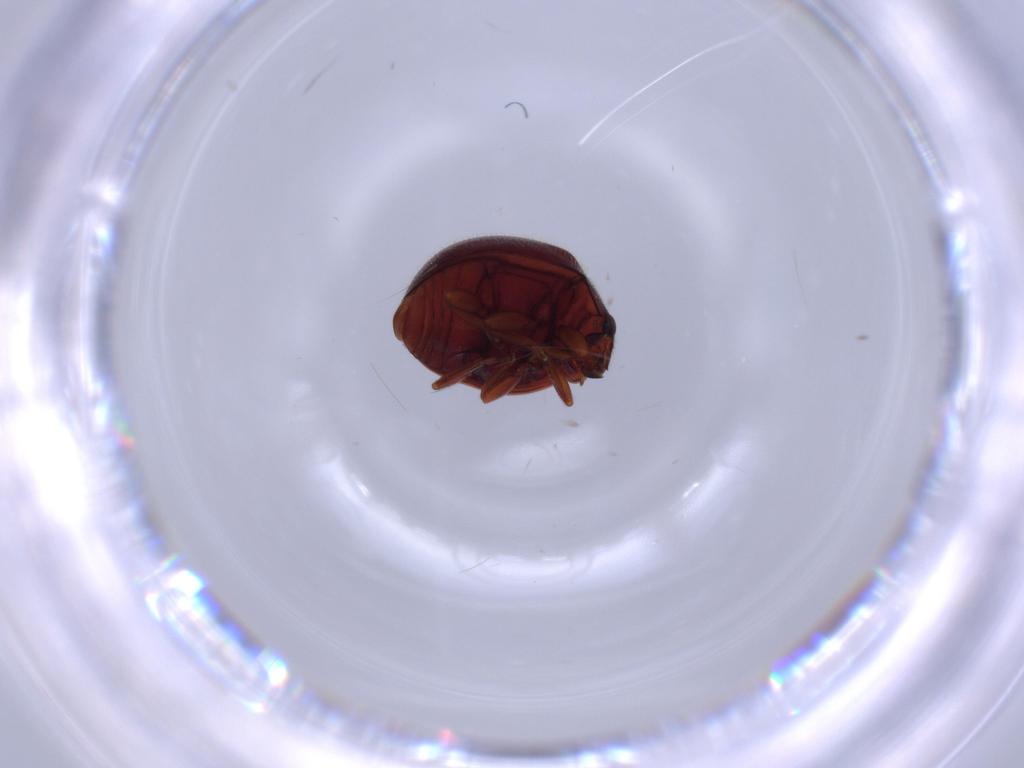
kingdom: Animalia
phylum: Arthropoda
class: Insecta
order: Coleoptera
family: Coccinellidae
